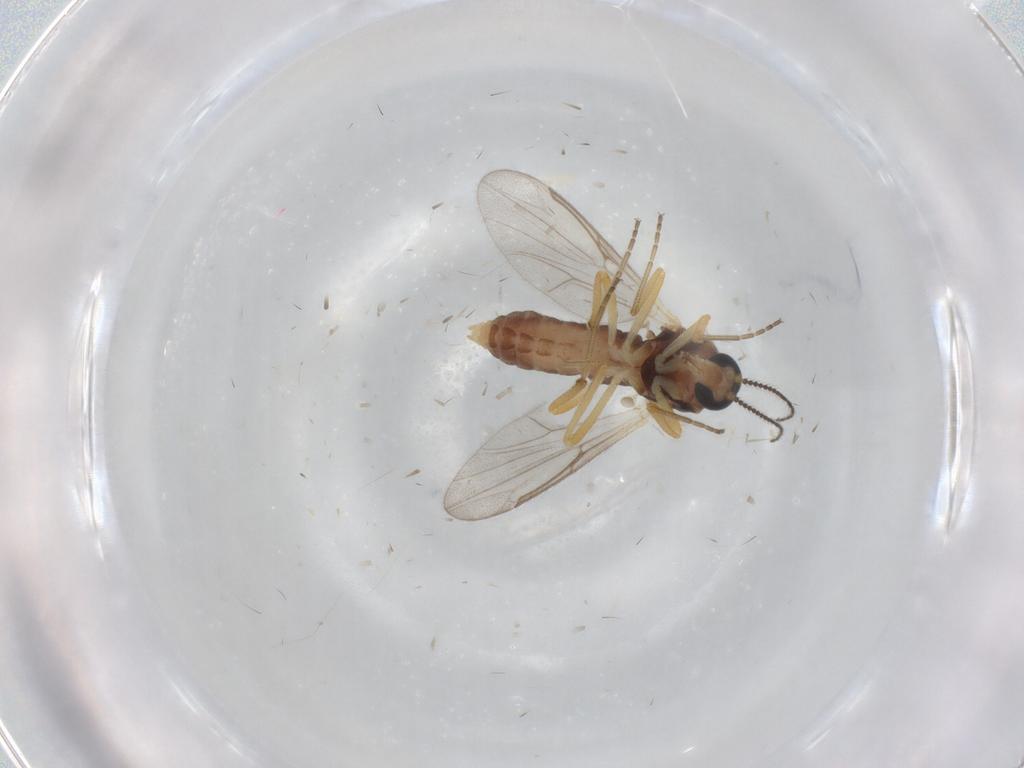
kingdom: Animalia
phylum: Arthropoda
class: Insecta
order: Diptera
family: Ceratopogonidae
